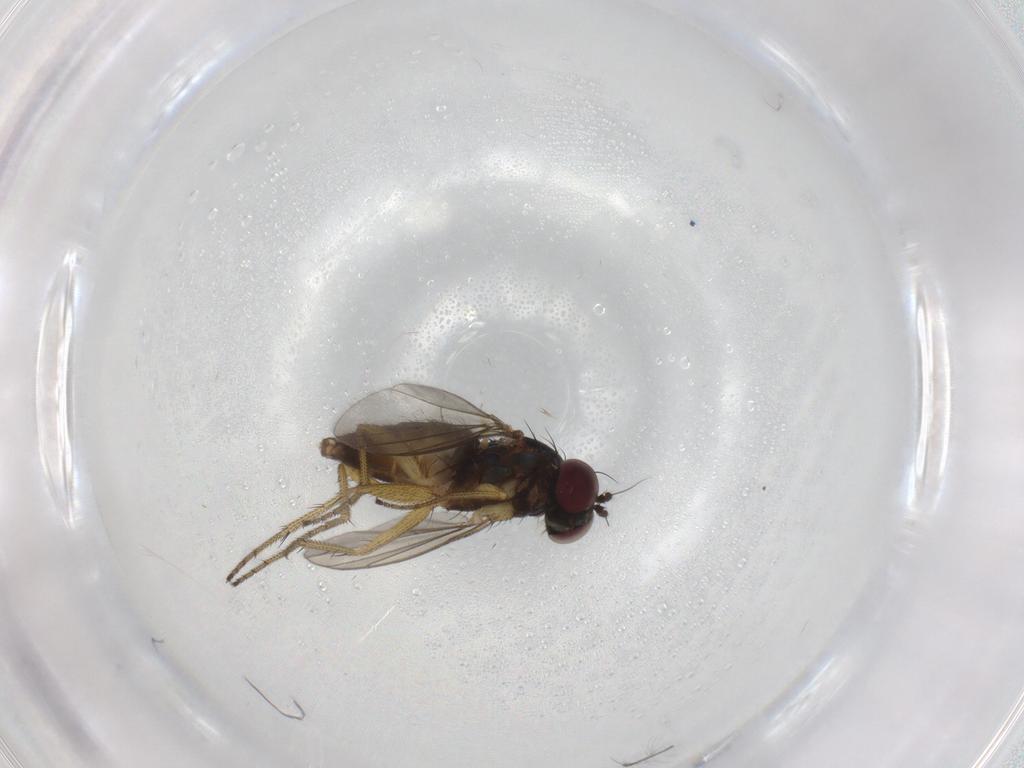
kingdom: Animalia
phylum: Arthropoda
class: Insecta
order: Diptera
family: Chironomidae
